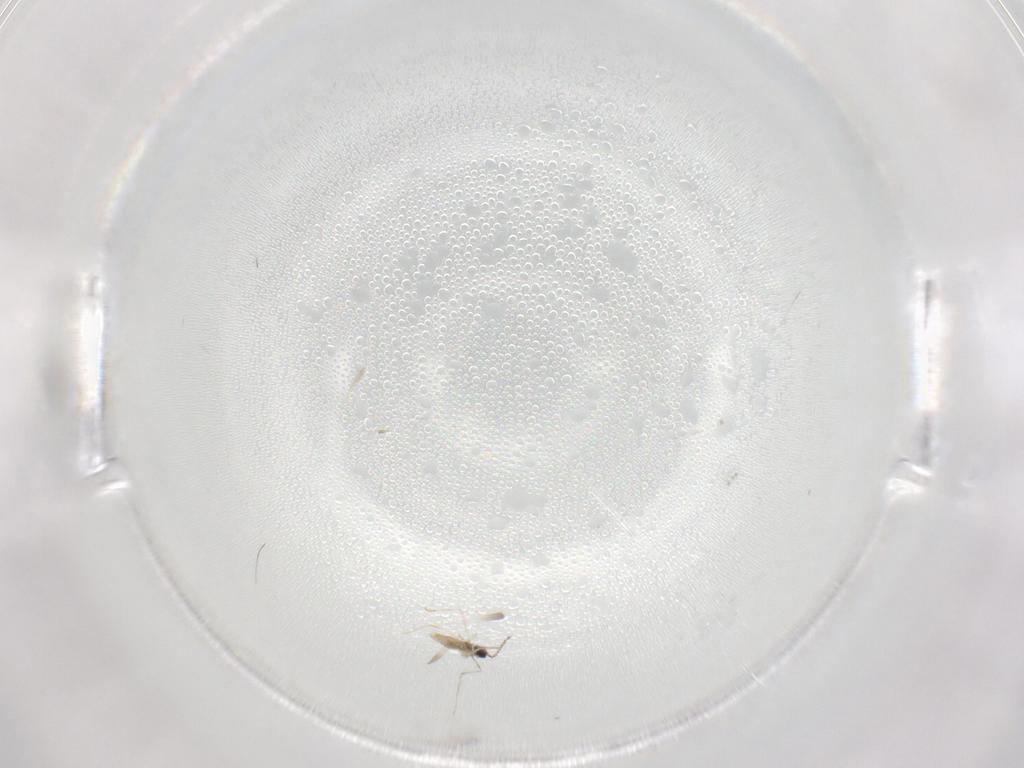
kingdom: Animalia
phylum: Arthropoda
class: Insecta
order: Diptera
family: Cecidomyiidae
